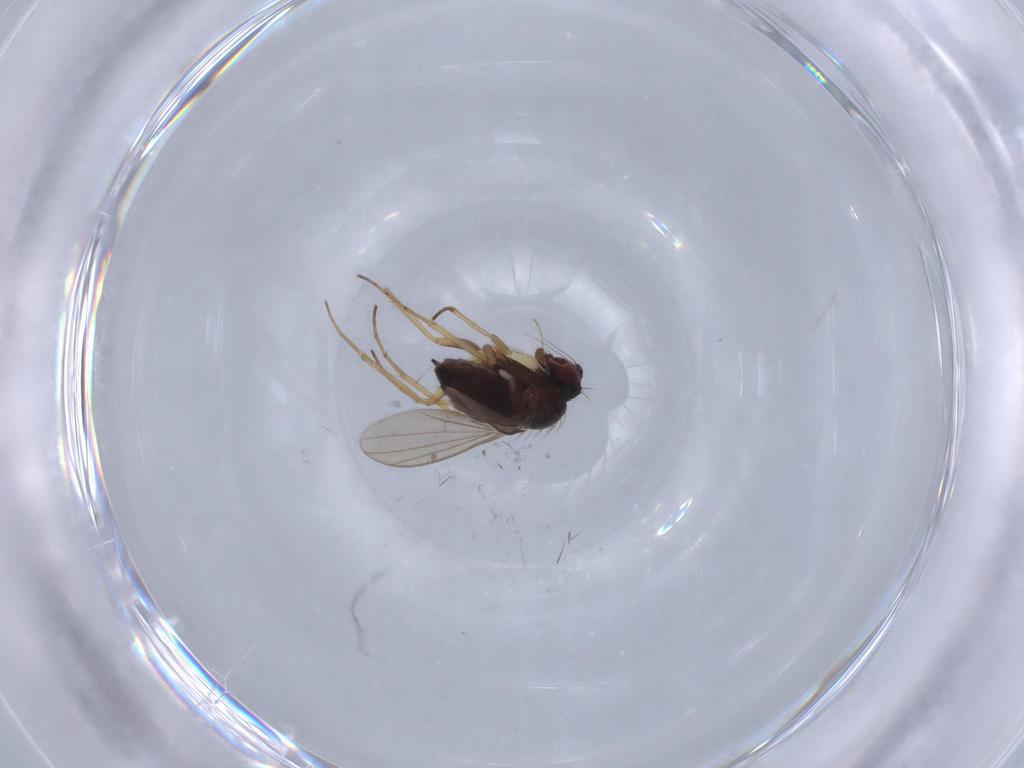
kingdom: Animalia
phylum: Arthropoda
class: Insecta
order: Diptera
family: Dolichopodidae
